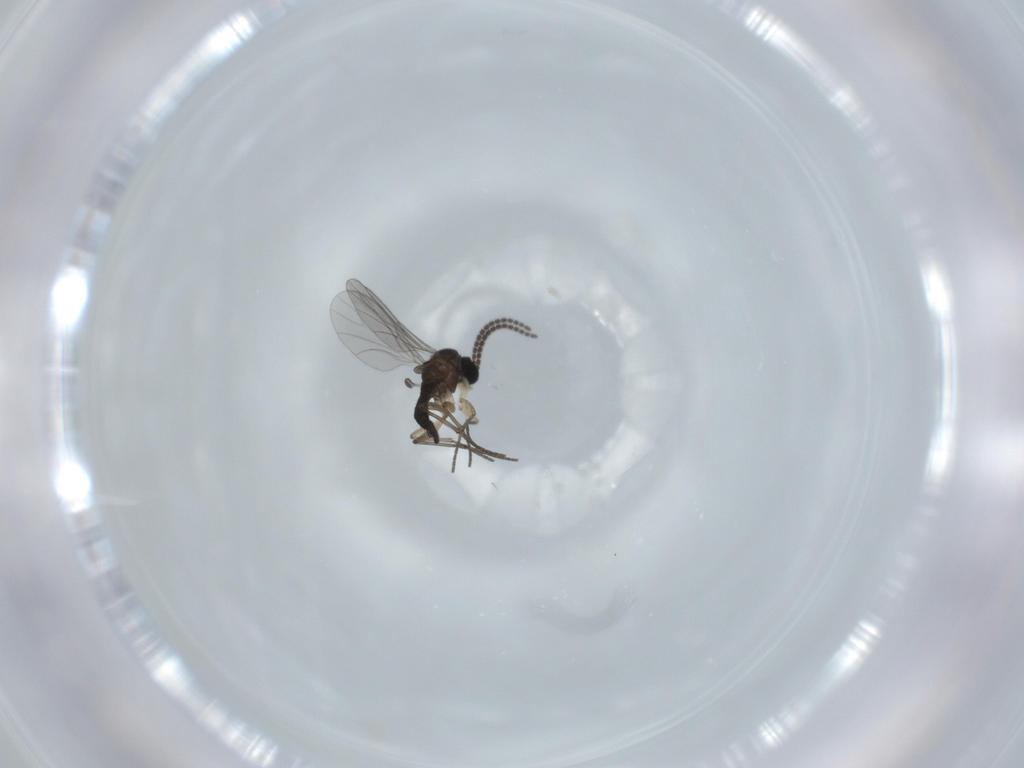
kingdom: Animalia
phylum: Arthropoda
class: Insecta
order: Diptera
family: Sciaridae
